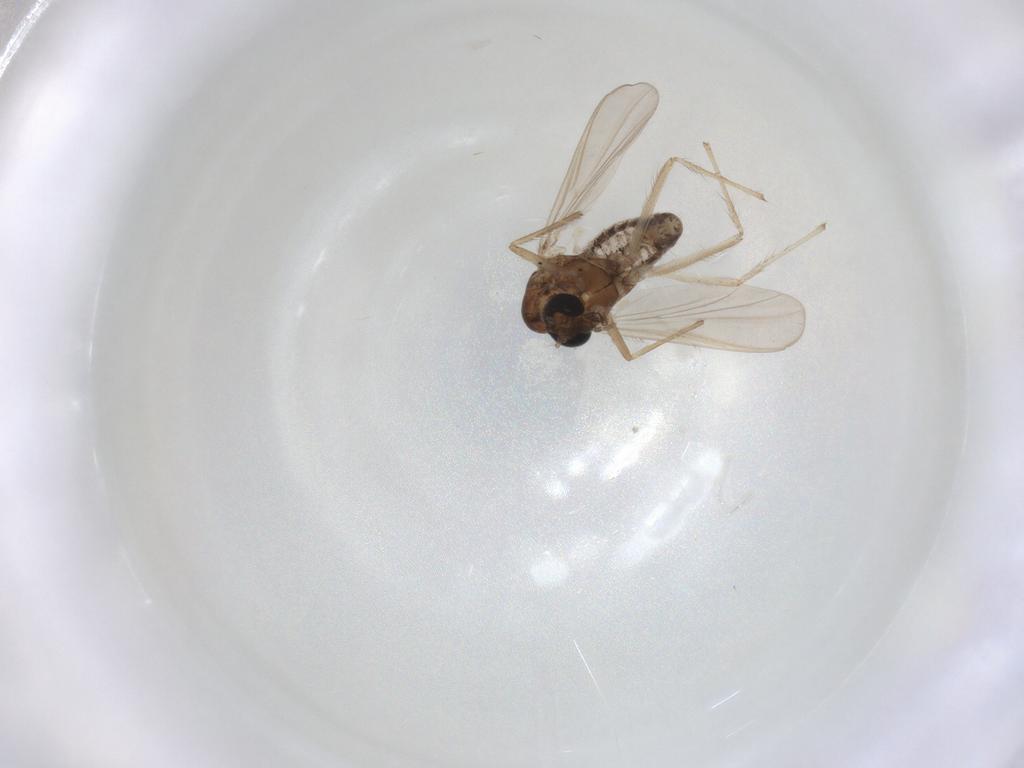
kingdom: Animalia
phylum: Arthropoda
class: Insecta
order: Diptera
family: Chironomidae
